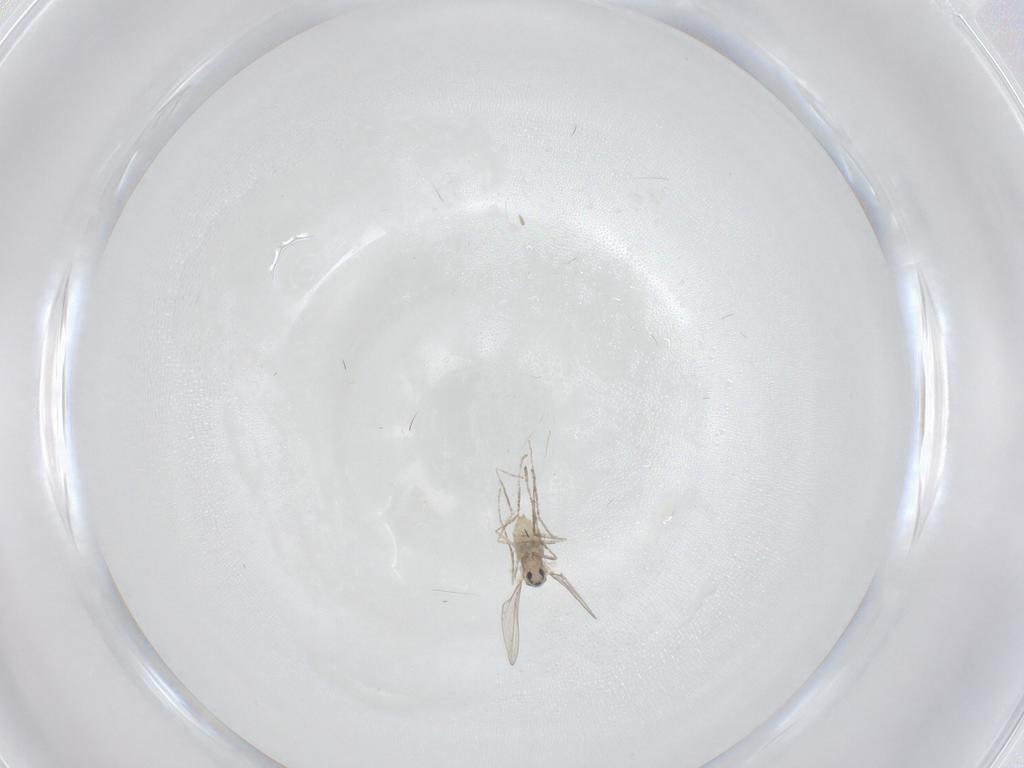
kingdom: Animalia
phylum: Arthropoda
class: Insecta
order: Diptera
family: Cecidomyiidae
